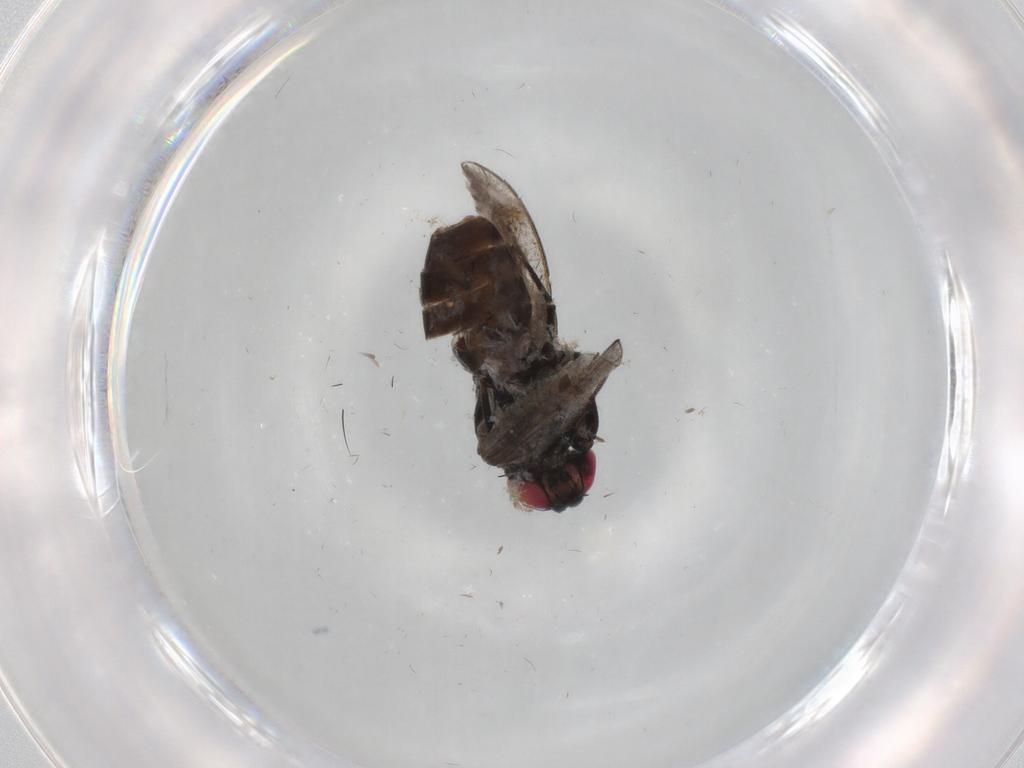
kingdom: Animalia
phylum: Arthropoda
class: Insecta
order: Diptera
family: Cecidomyiidae
